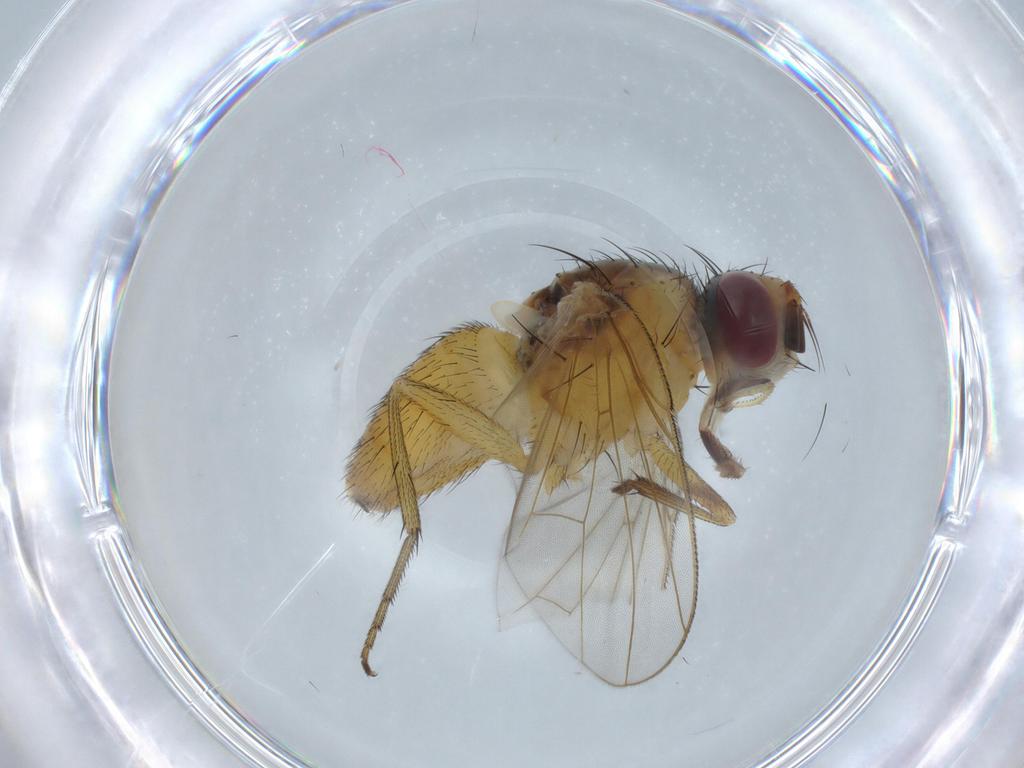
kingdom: Animalia
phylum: Arthropoda
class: Insecta
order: Diptera
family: Muscidae
